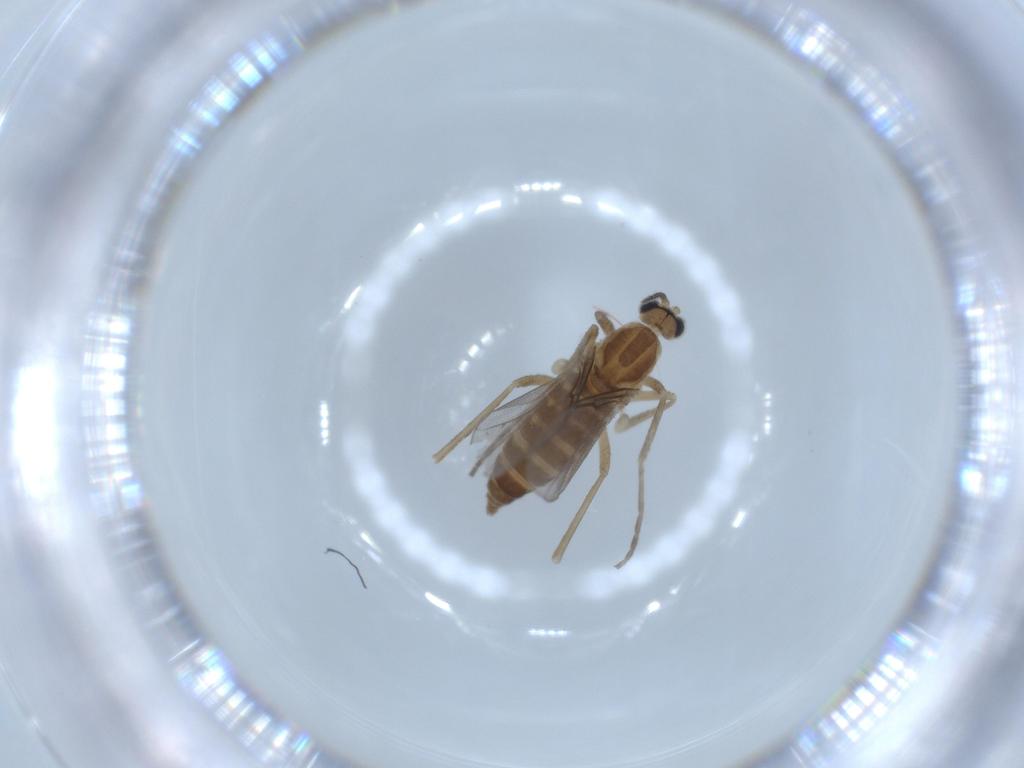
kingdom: Animalia
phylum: Arthropoda
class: Insecta
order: Diptera
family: Cecidomyiidae
